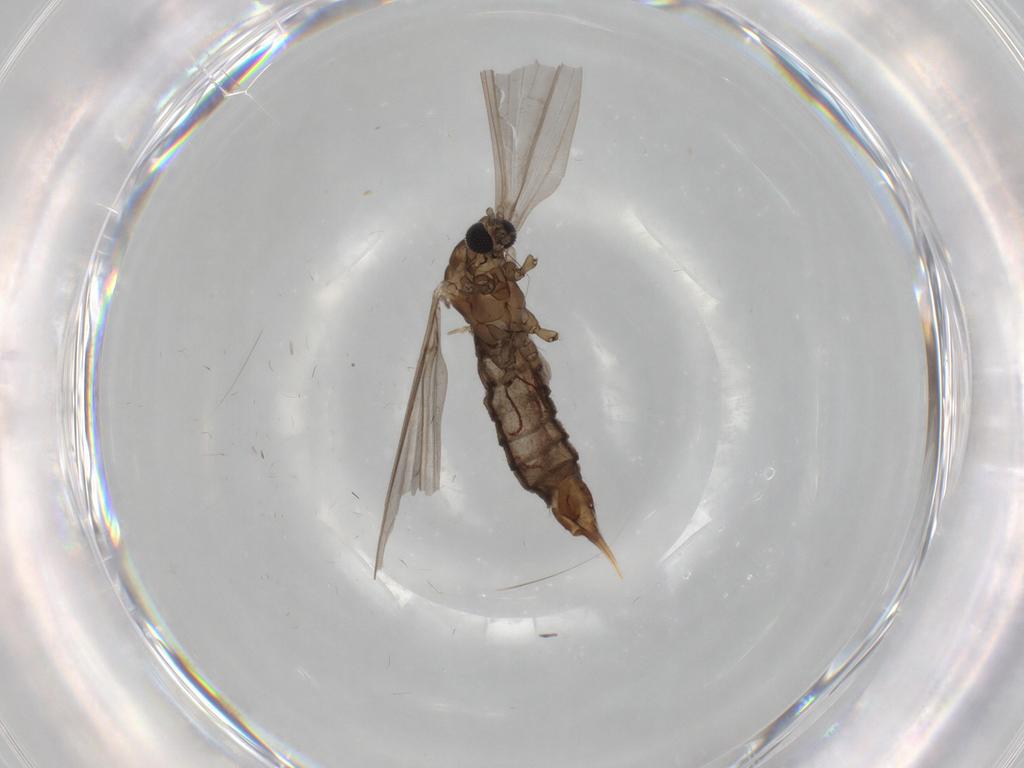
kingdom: Animalia
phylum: Arthropoda
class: Insecta
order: Diptera
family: Limoniidae
